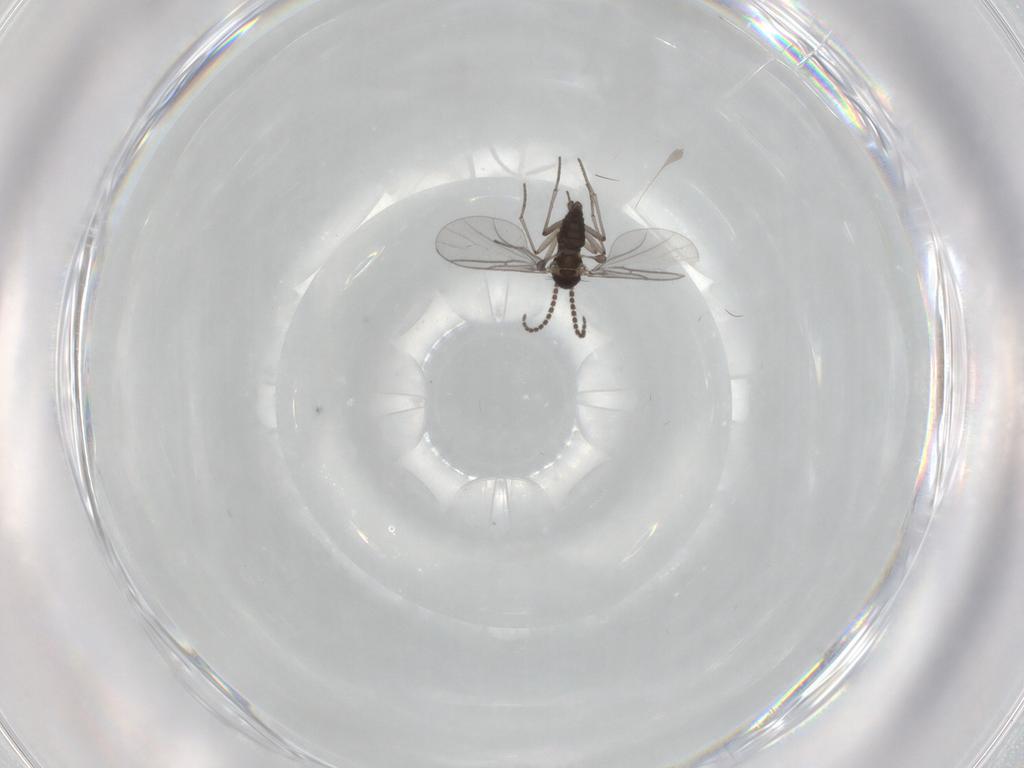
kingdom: Animalia
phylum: Arthropoda
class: Insecta
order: Diptera
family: Sciaridae
